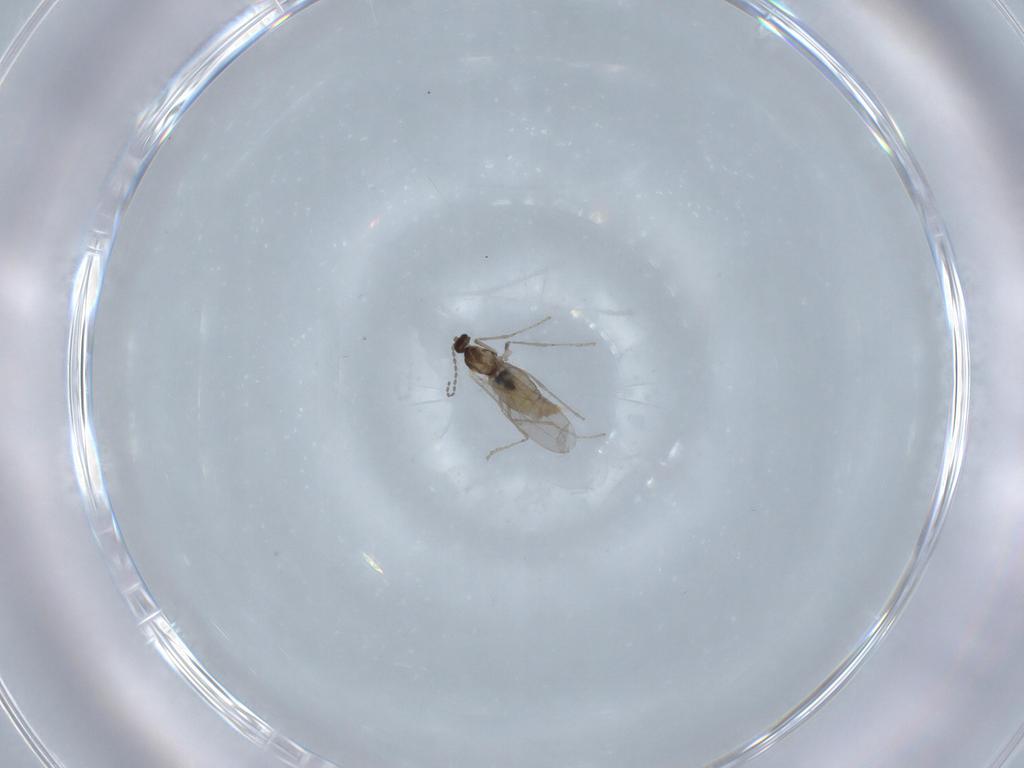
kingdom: Animalia
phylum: Arthropoda
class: Insecta
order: Diptera
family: Cecidomyiidae
